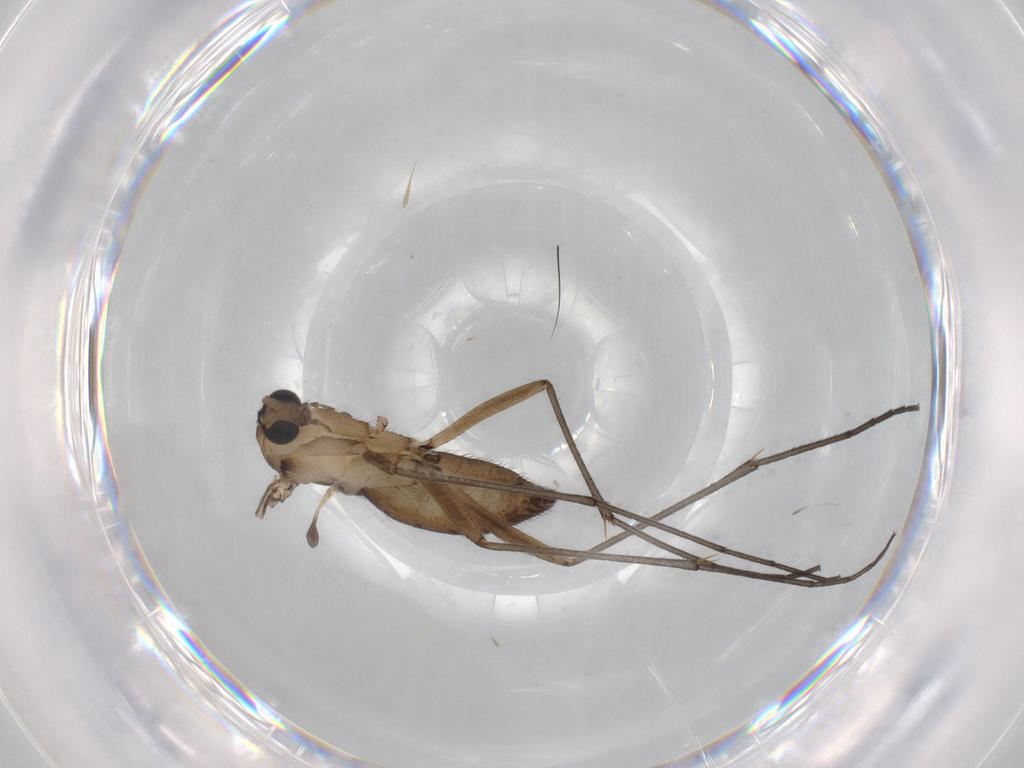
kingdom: Animalia
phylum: Arthropoda
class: Insecta
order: Diptera
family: Sciaridae
